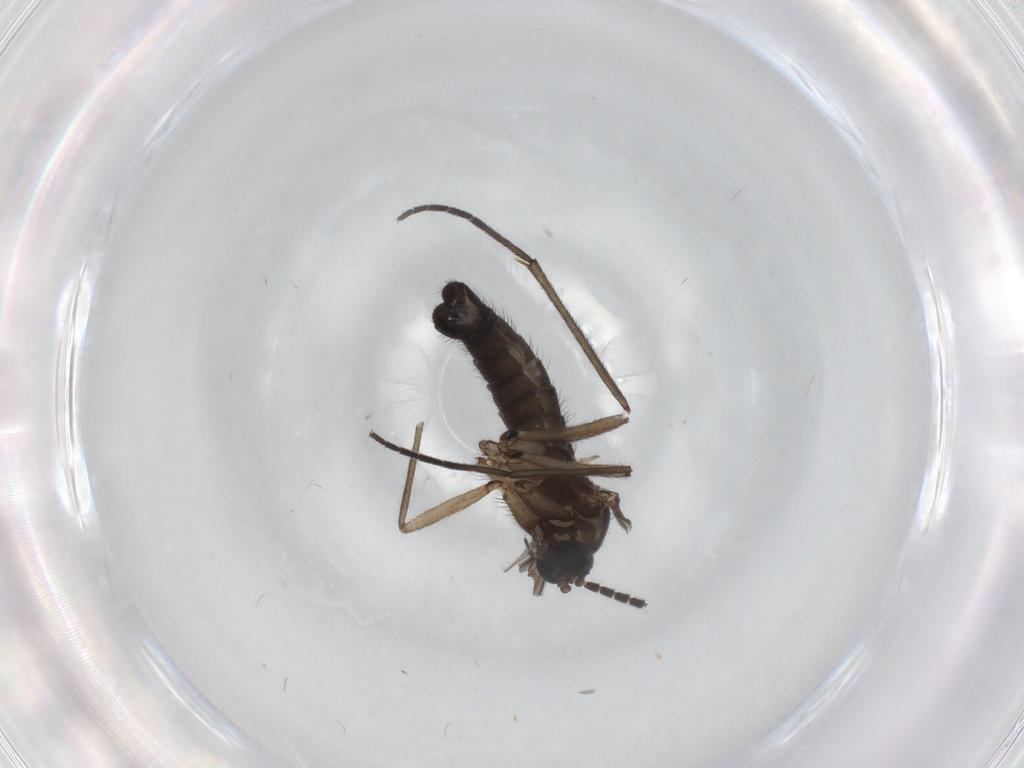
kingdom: Animalia
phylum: Arthropoda
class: Insecta
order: Diptera
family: Sciaridae
